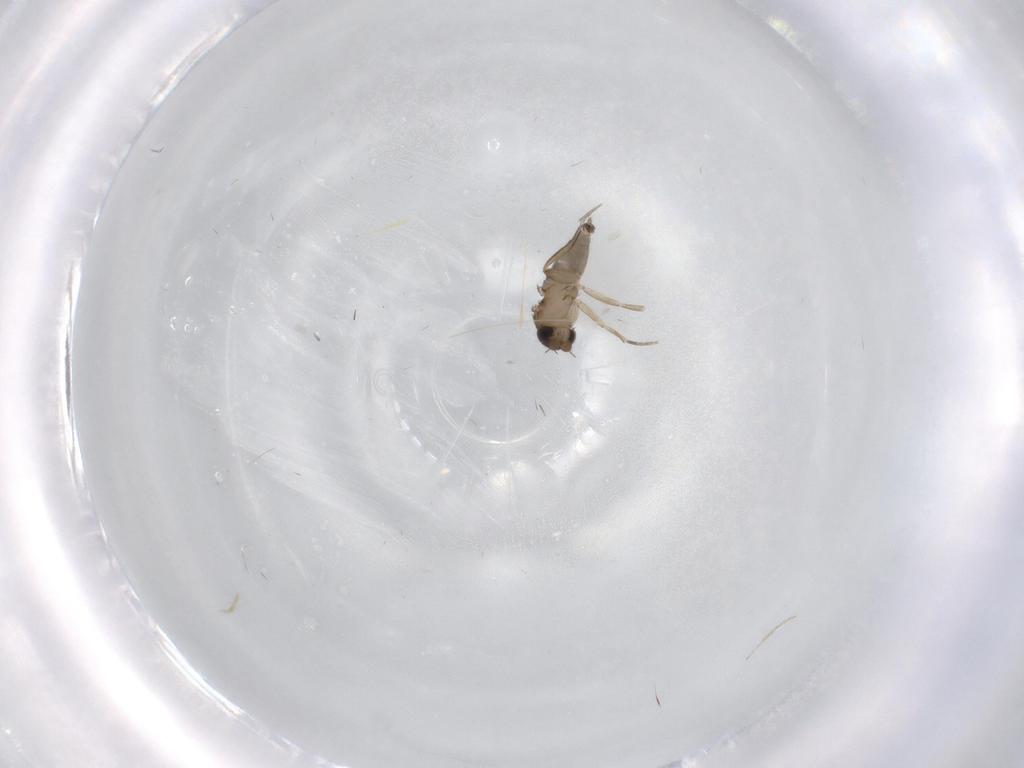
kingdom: Animalia
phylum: Arthropoda
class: Insecta
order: Diptera
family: Phoridae
